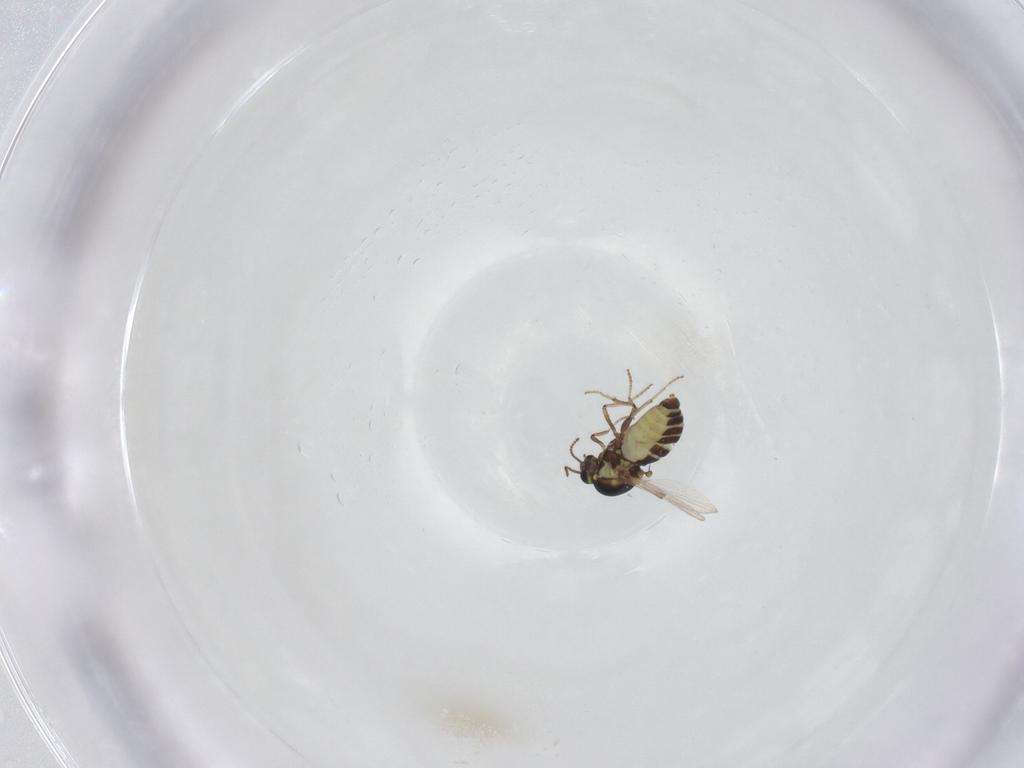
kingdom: Animalia
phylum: Arthropoda
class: Insecta
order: Diptera
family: Ceratopogonidae
